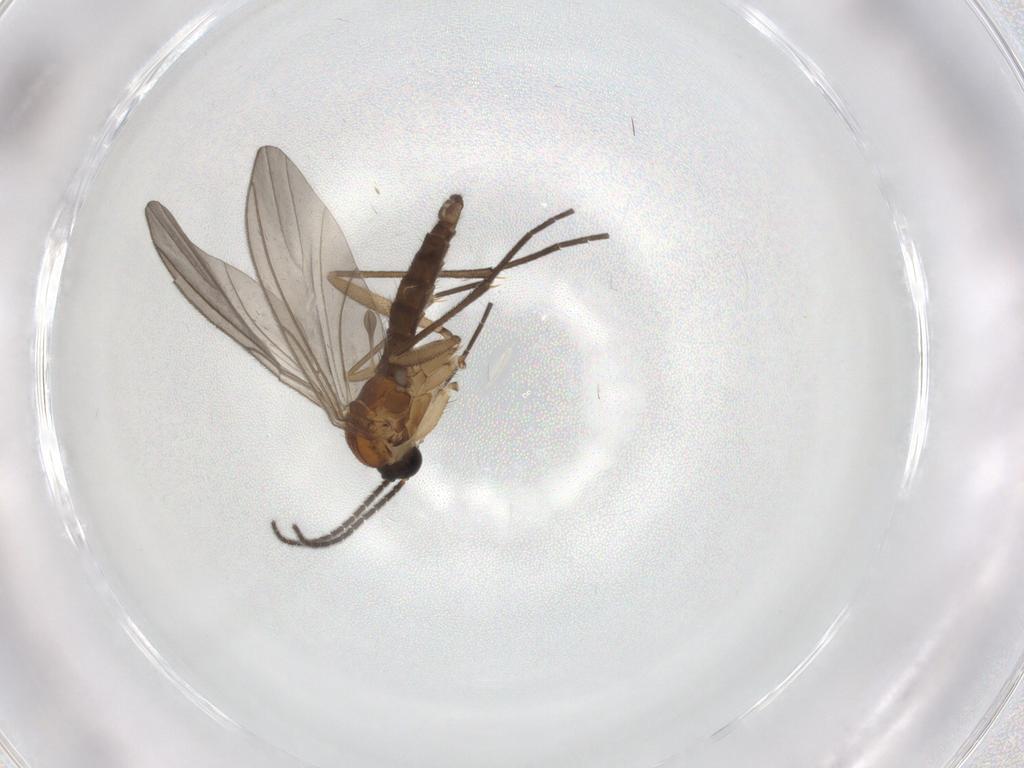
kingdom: Animalia
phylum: Arthropoda
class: Insecta
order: Diptera
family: Sciaridae
